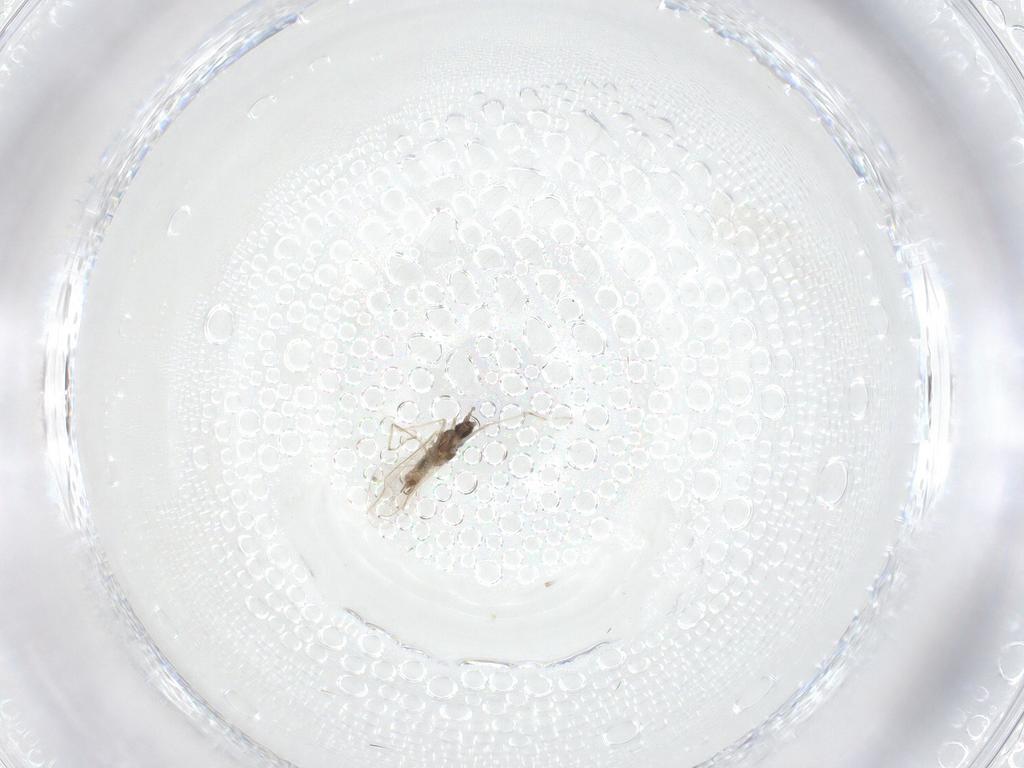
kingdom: Animalia
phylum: Arthropoda
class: Insecta
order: Diptera
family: Cecidomyiidae
